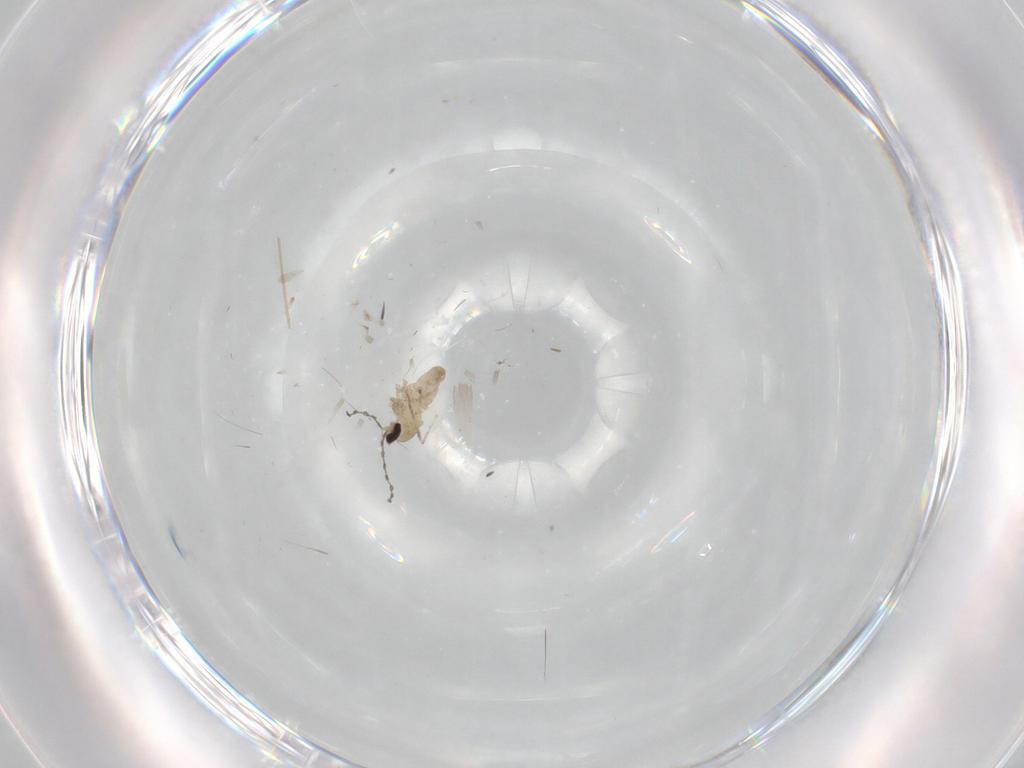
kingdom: Animalia
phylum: Arthropoda
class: Insecta
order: Diptera
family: Cecidomyiidae
